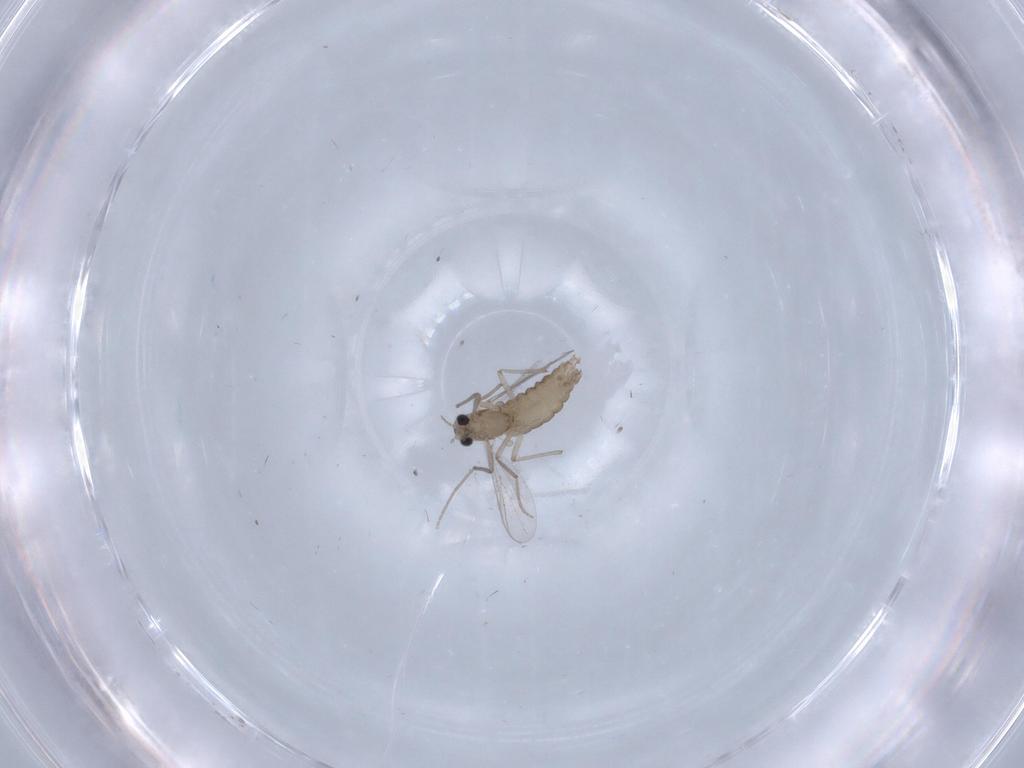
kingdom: Animalia
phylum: Arthropoda
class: Insecta
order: Diptera
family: Chironomidae
